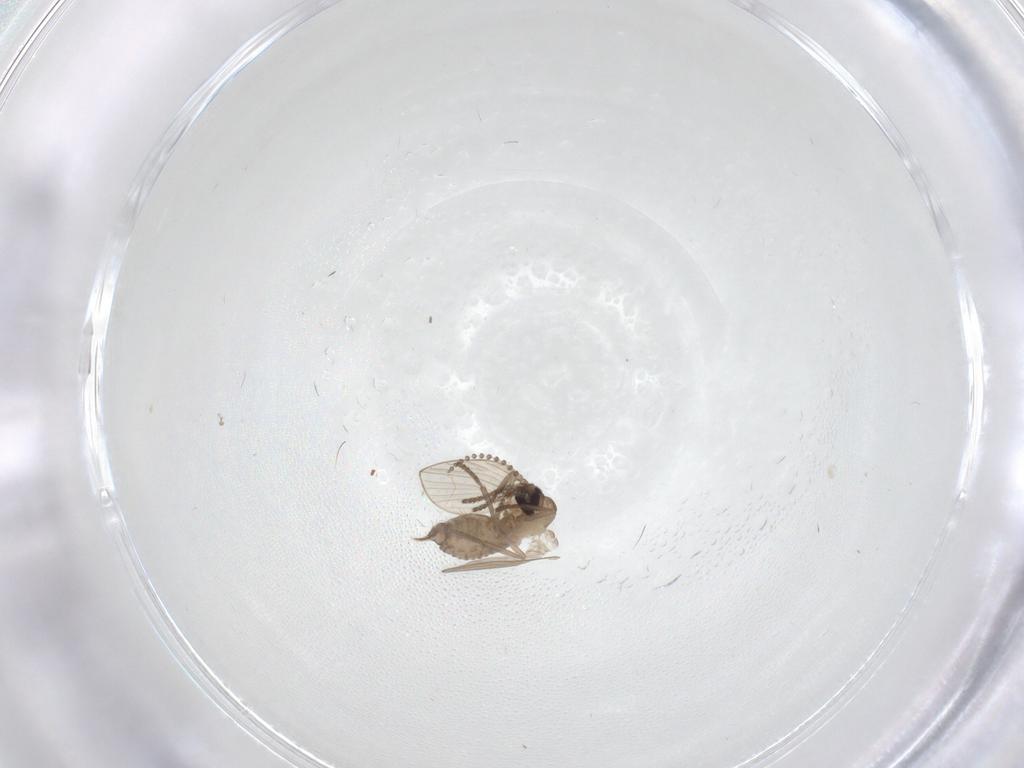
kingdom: Animalia
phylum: Arthropoda
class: Insecta
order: Diptera
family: Psychodidae
